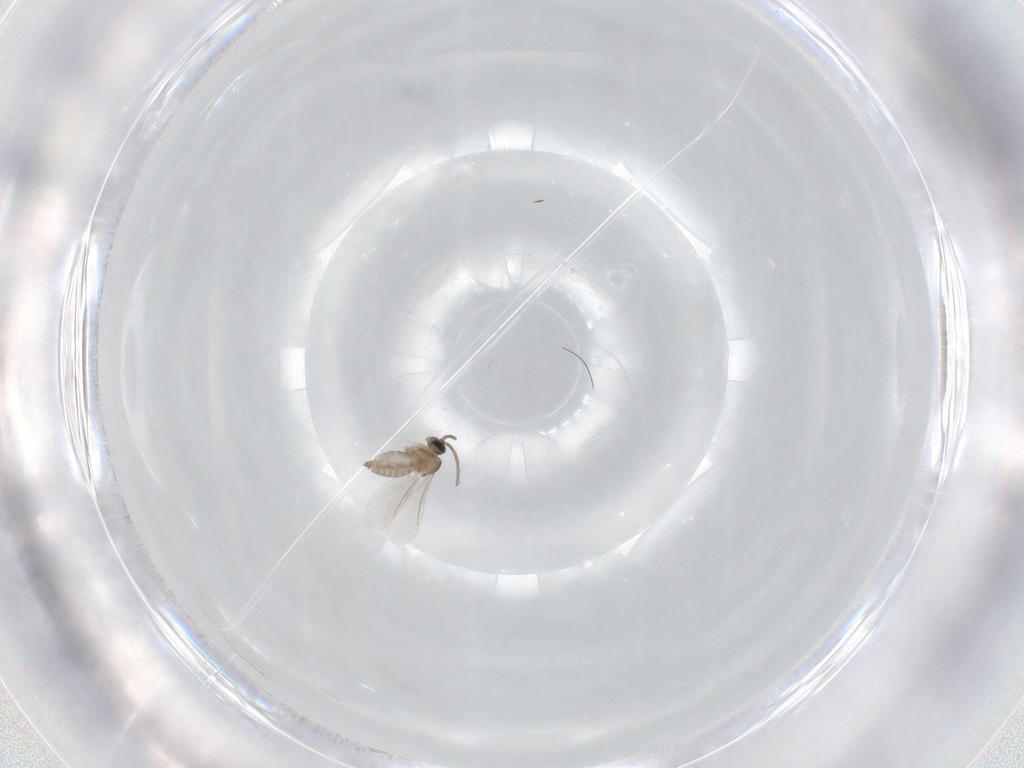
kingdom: Animalia
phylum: Arthropoda
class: Insecta
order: Diptera
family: Cecidomyiidae
